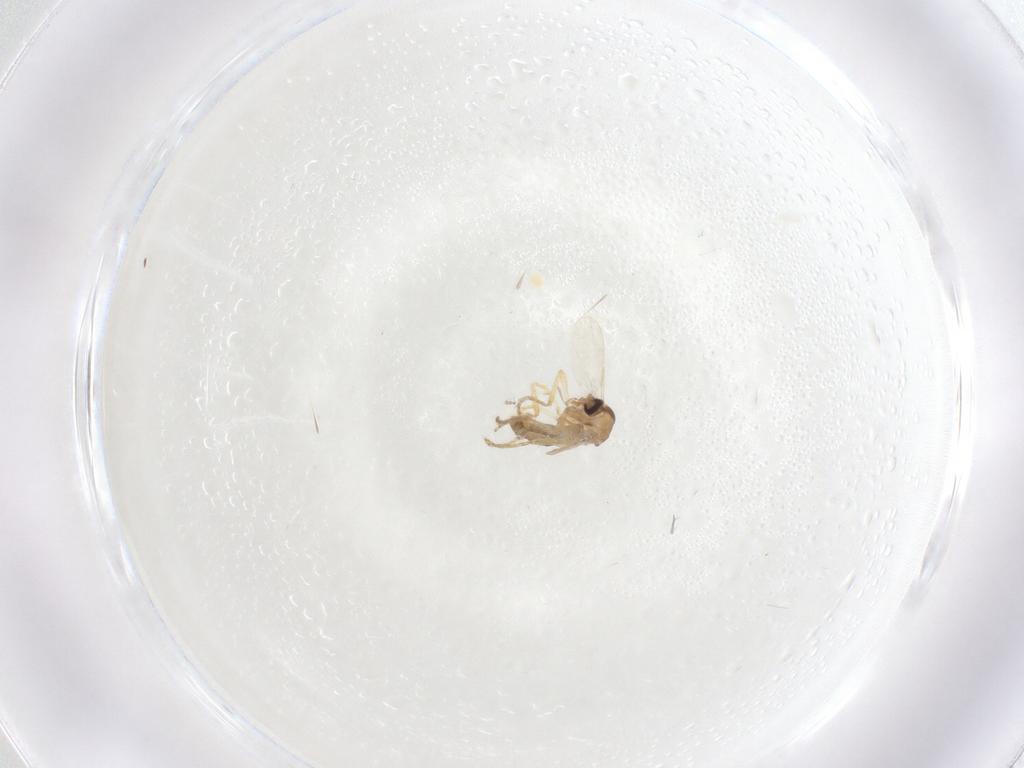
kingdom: Animalia
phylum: Arthropoda
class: Insecta
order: Diptera
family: Ceratopogonidae
